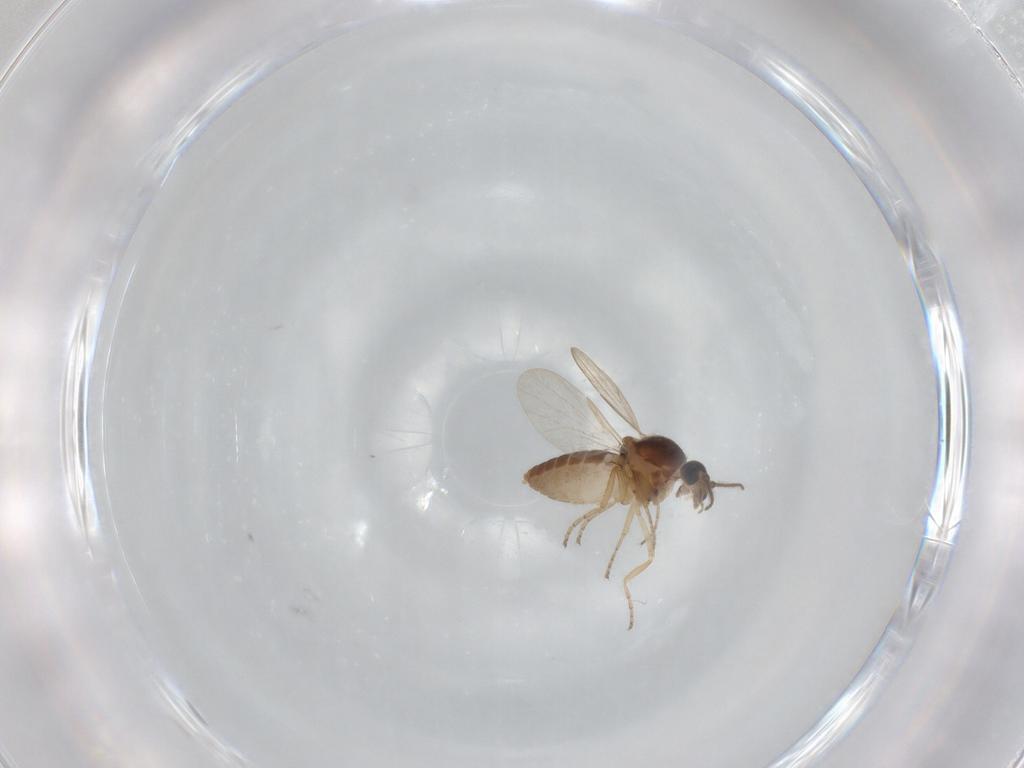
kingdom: Animalia
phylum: Arthropoda
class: Insecta
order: Diptera
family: Ceratopogonidae
